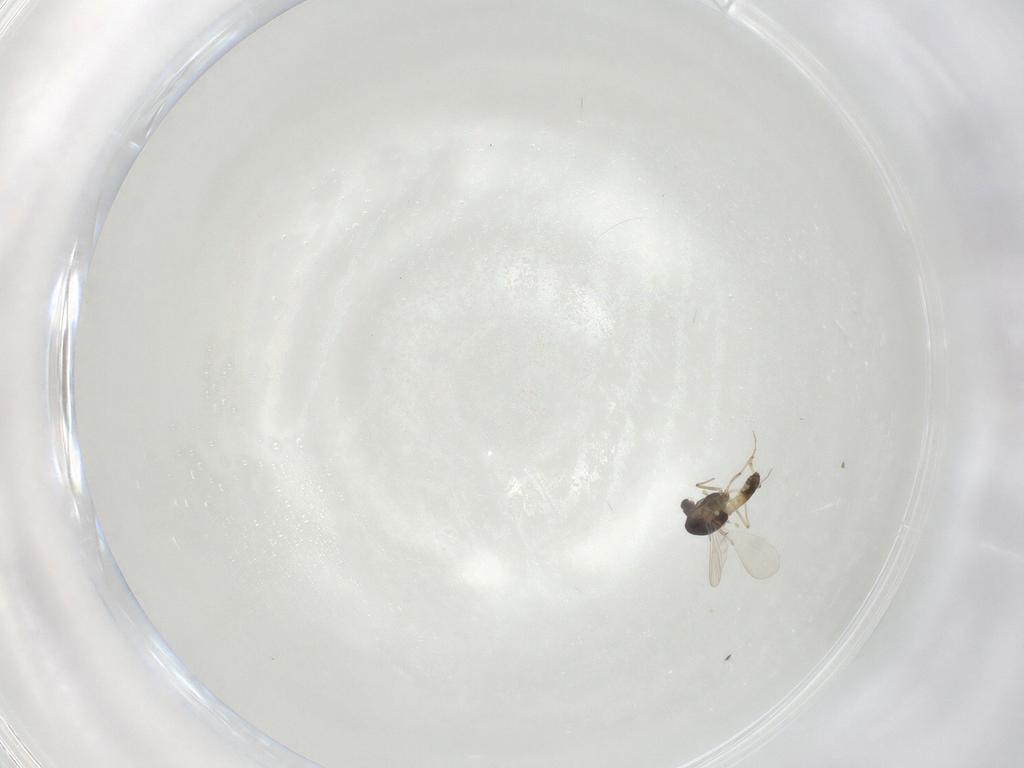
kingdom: Animalia
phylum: Arthropoda
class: Insecta
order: Diptera
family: Chironomidae
